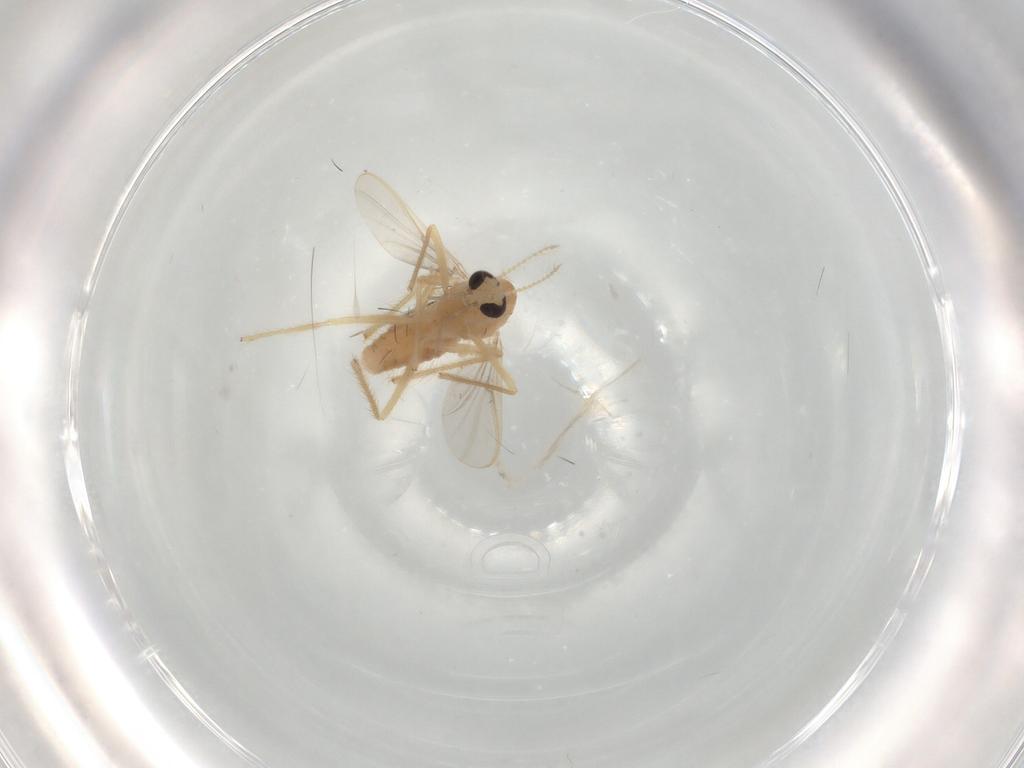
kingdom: Animalia
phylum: Arthropoda
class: Insecta
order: Diptera
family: Chironomidae
